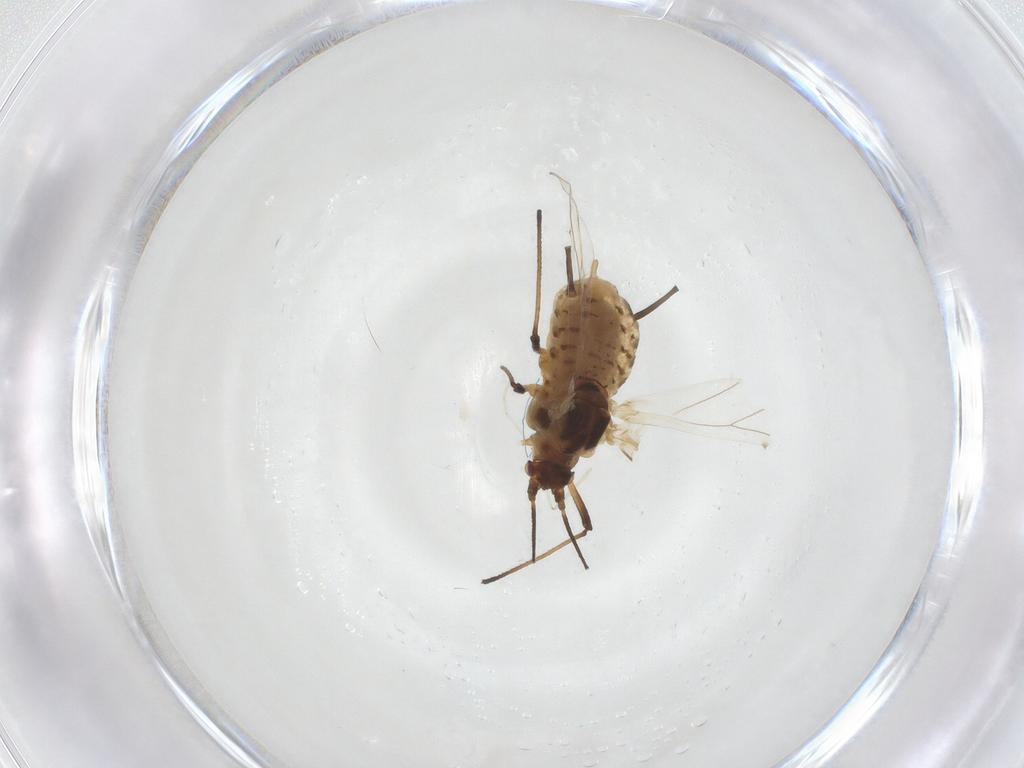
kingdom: Animalia
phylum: Arthropoda
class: Insecta
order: Hemiptera
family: Aphididae
